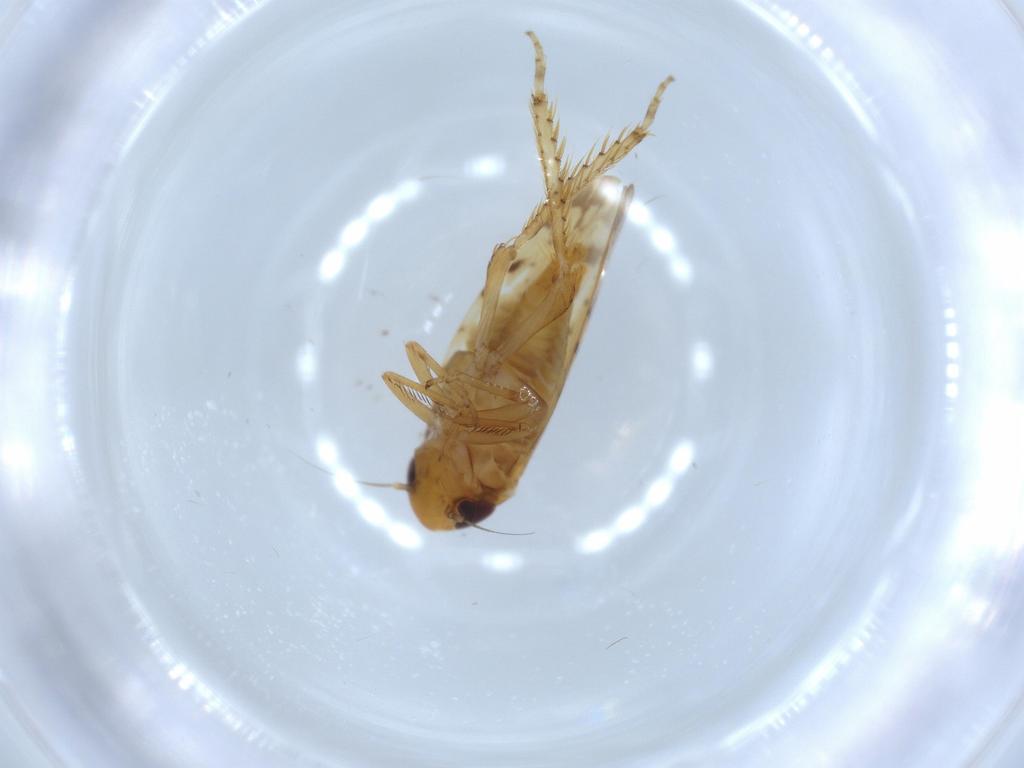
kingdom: Animalia
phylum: Arthropoda
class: Insecta
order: Hemiptera
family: Cicadellidae
